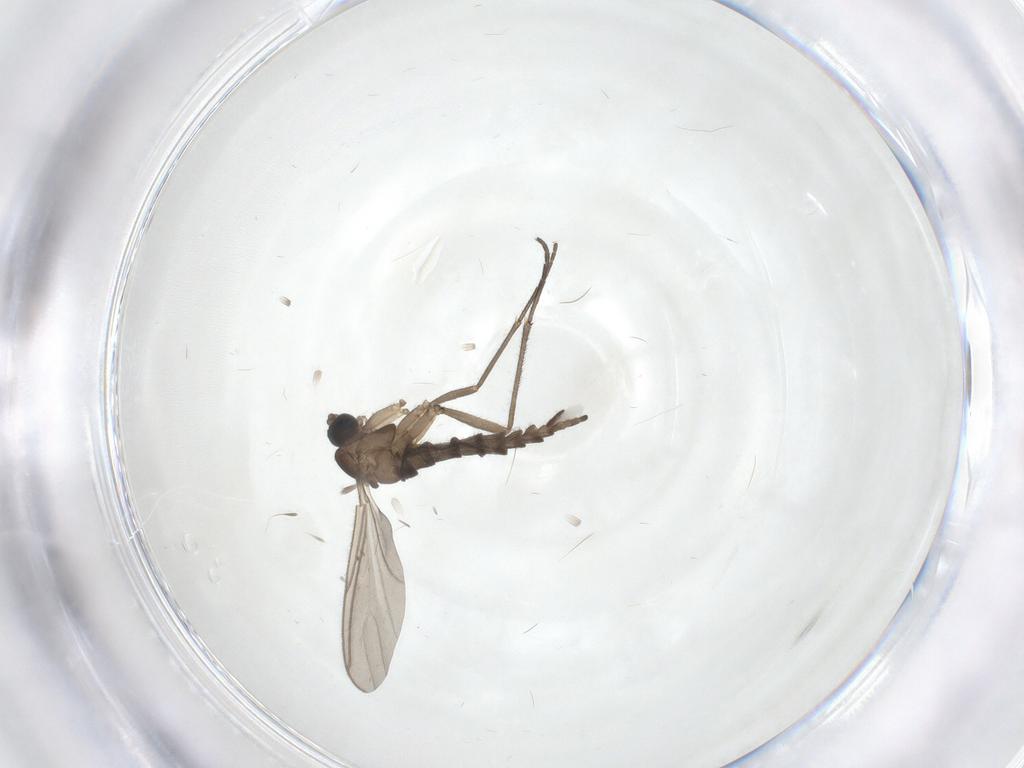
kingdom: Animalia
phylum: Arthropoda
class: Insecta
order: Diptera
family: Sciaridae
